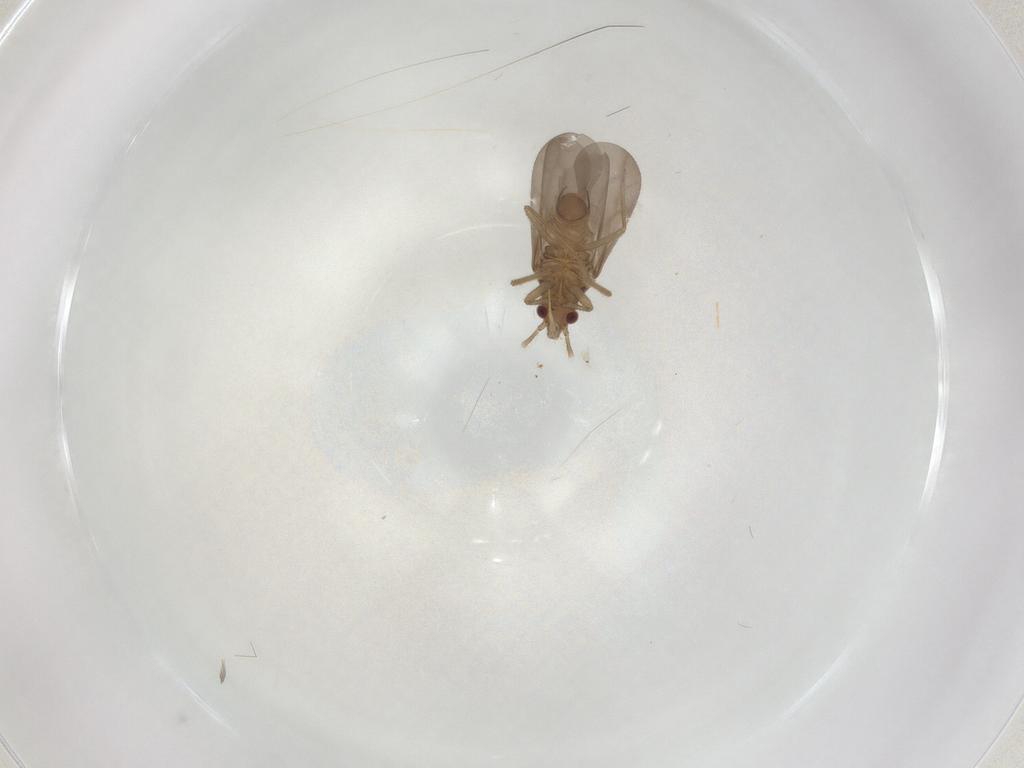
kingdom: Animalia
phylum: Arthropoda
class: Insecta
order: Hemiptera
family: Aleyrodidae
